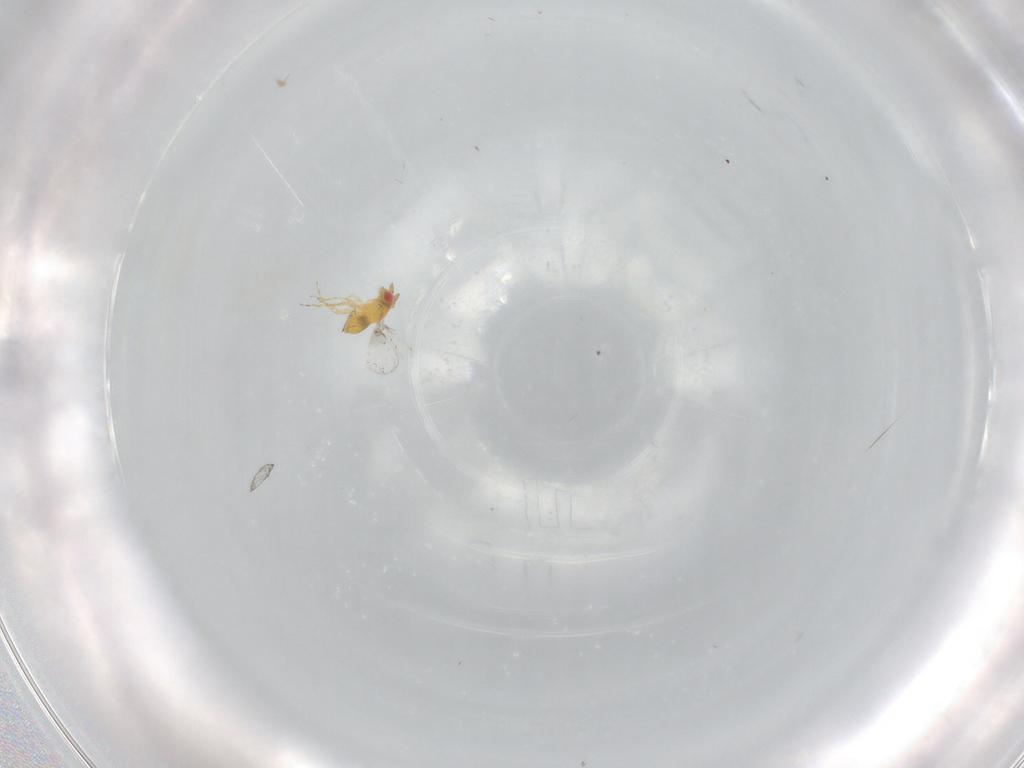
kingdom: Animalia
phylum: Arthropoda
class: Insecta
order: Hymenoptera
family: Trichogrammatidae
